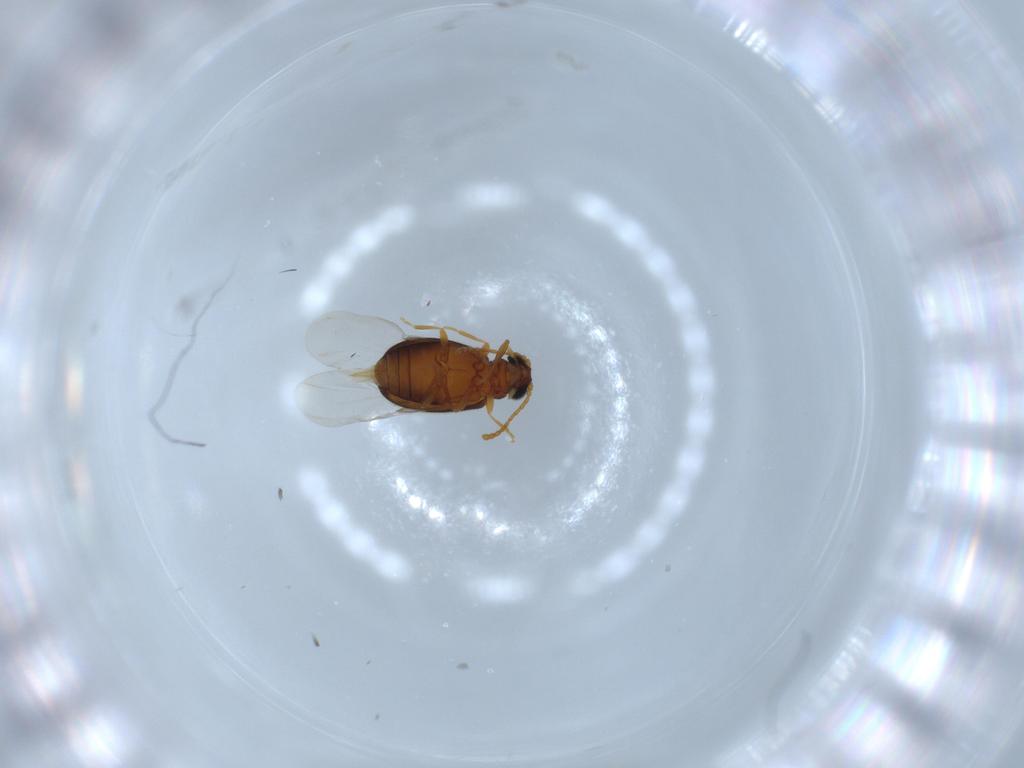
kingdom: Animalia
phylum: Arthropoda
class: Insecta
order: Coleoptera
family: Aderidae
